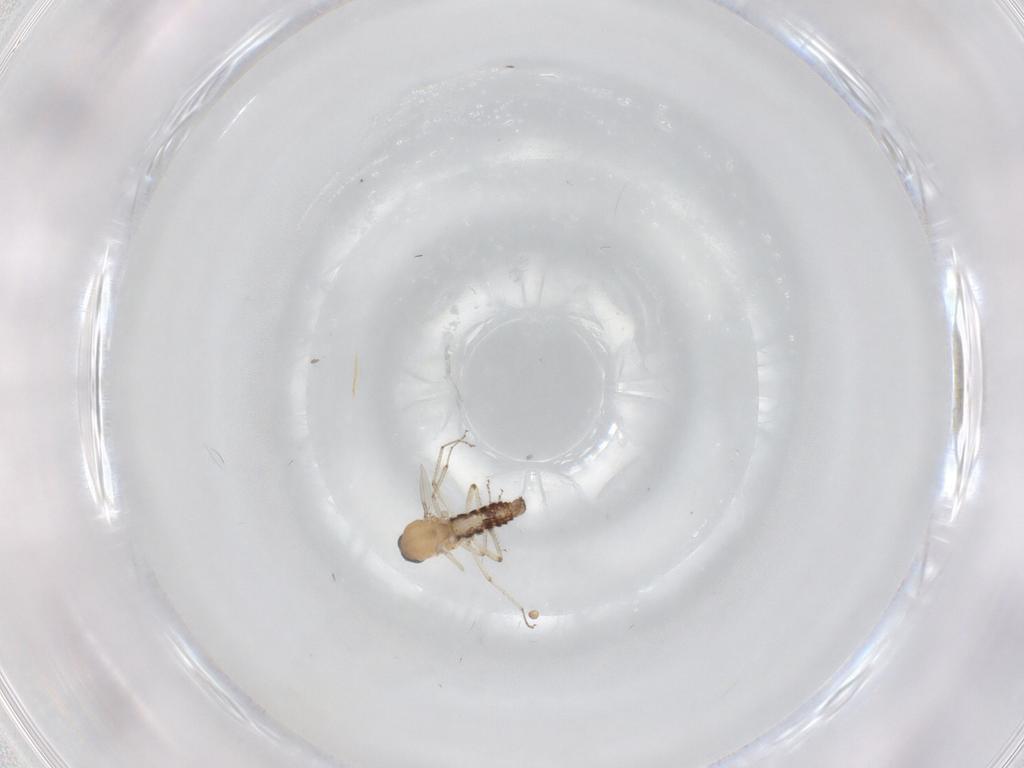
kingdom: Animalia
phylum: Arthropoda
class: Insecta
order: Diptera
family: Ceratopogonidae
